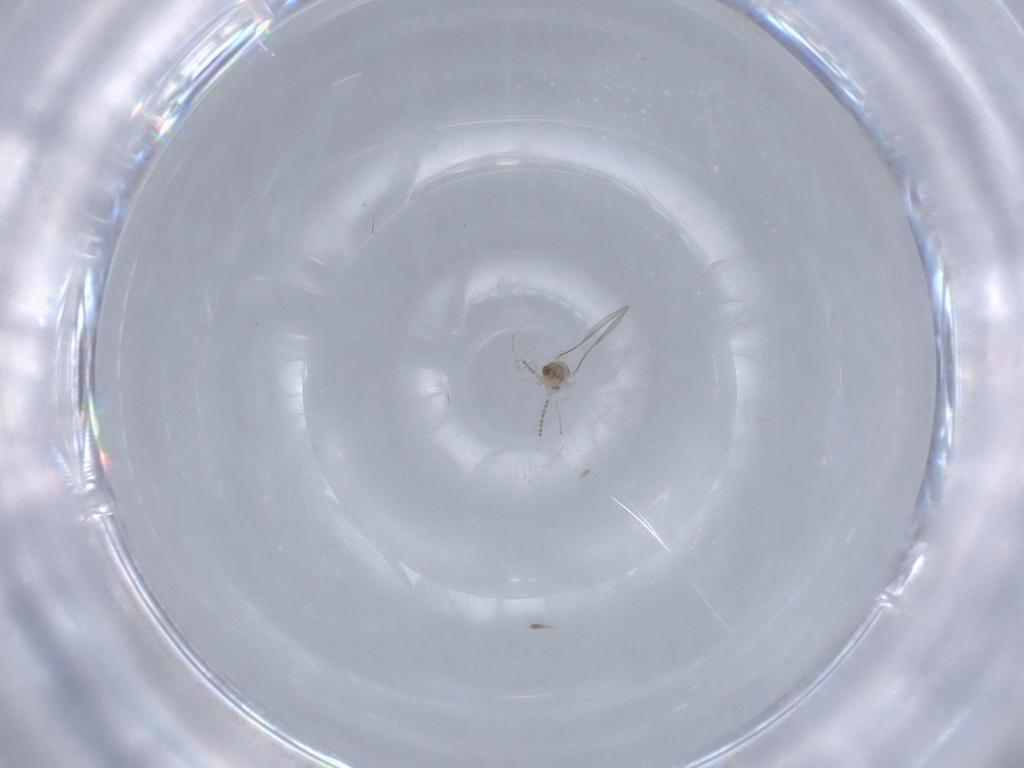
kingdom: Animalia
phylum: Arthropoda
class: Insecta
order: Diptera
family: Cecidomyiidae
